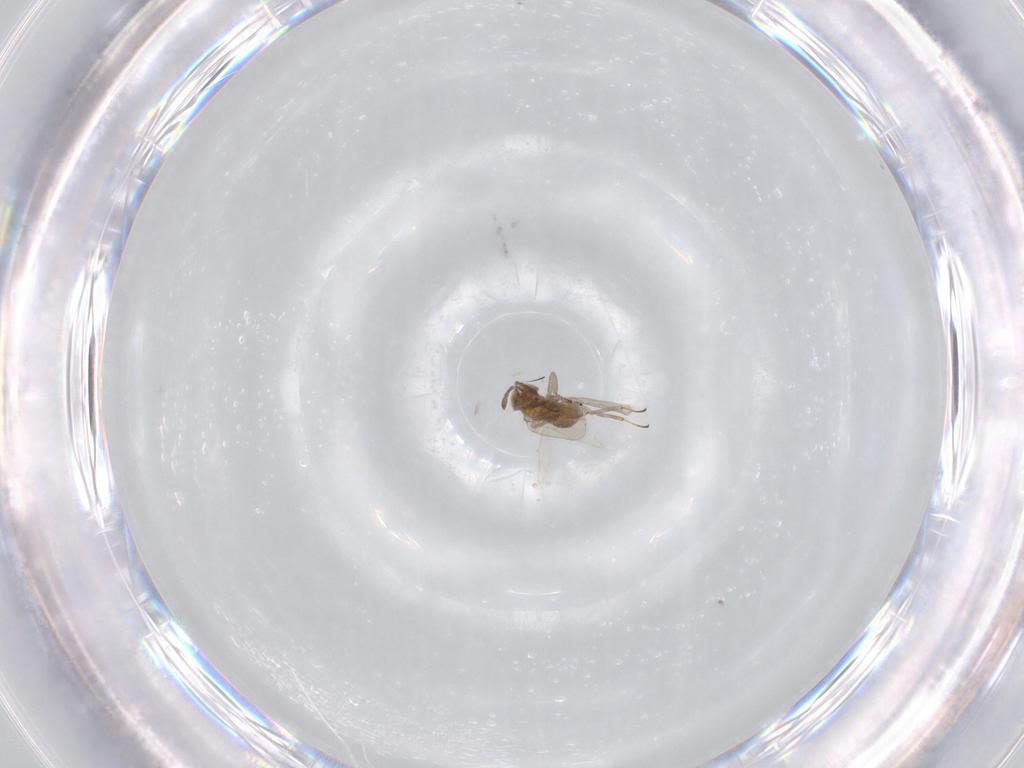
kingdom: Animalia
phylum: Arthropoda
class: Insecta
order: Hymenoptera
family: Aphelinidae
